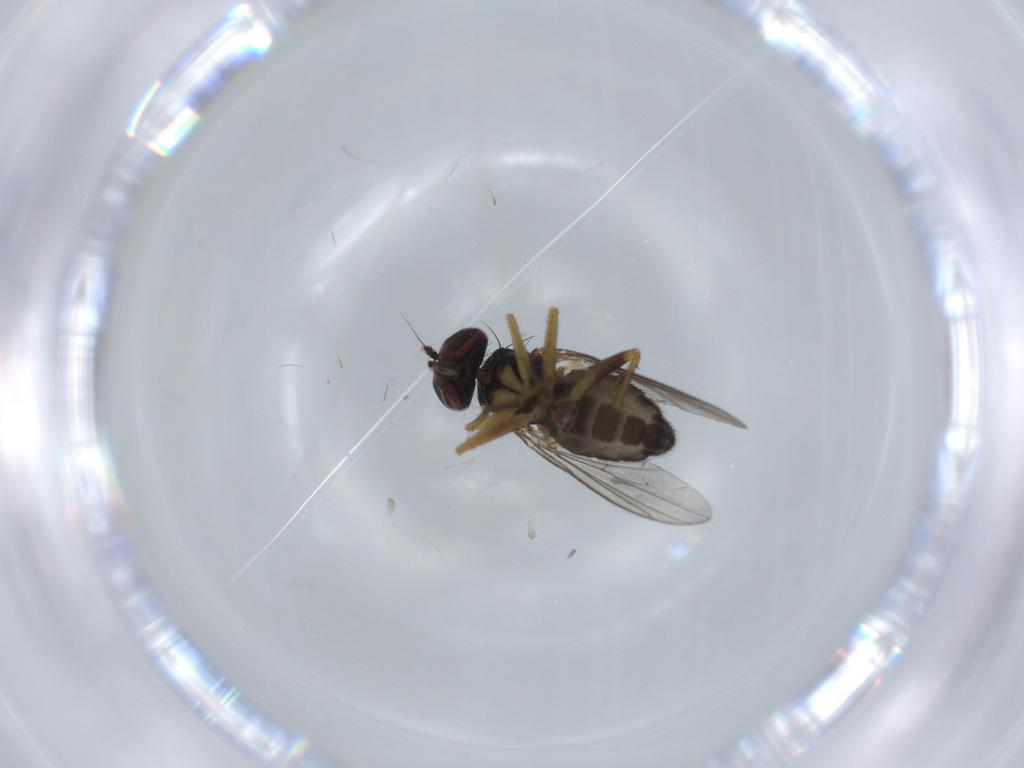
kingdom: Animalia
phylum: Arthropoda
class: Insecta
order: Diptera
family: Dolichopodidae
